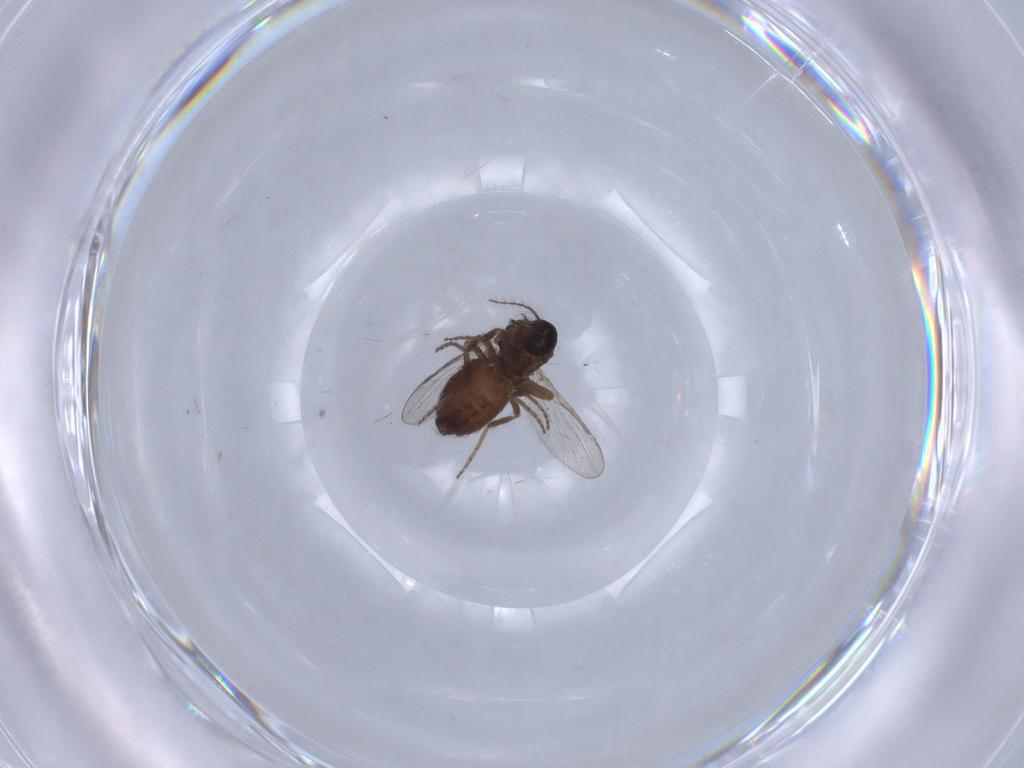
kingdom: Animalia
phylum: Arthropoda
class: Insecta
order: Diptera
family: Ceratopogonidae
